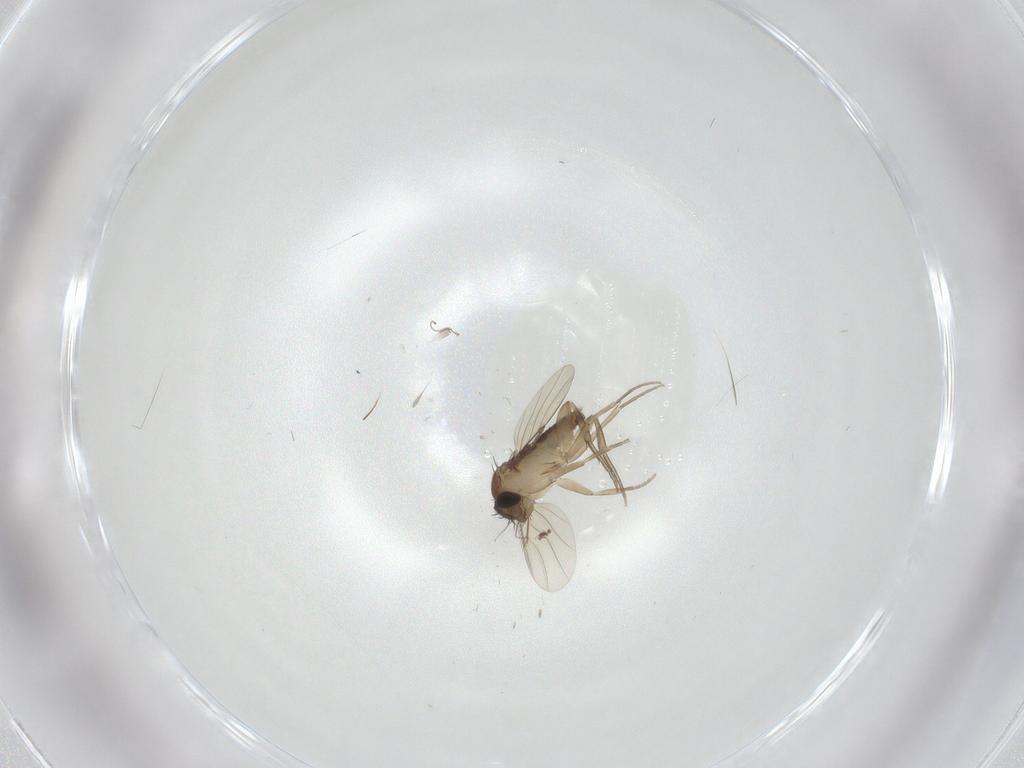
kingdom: Animalia
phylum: Arthropoda
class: Insecta
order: Diptera
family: Phoridae
